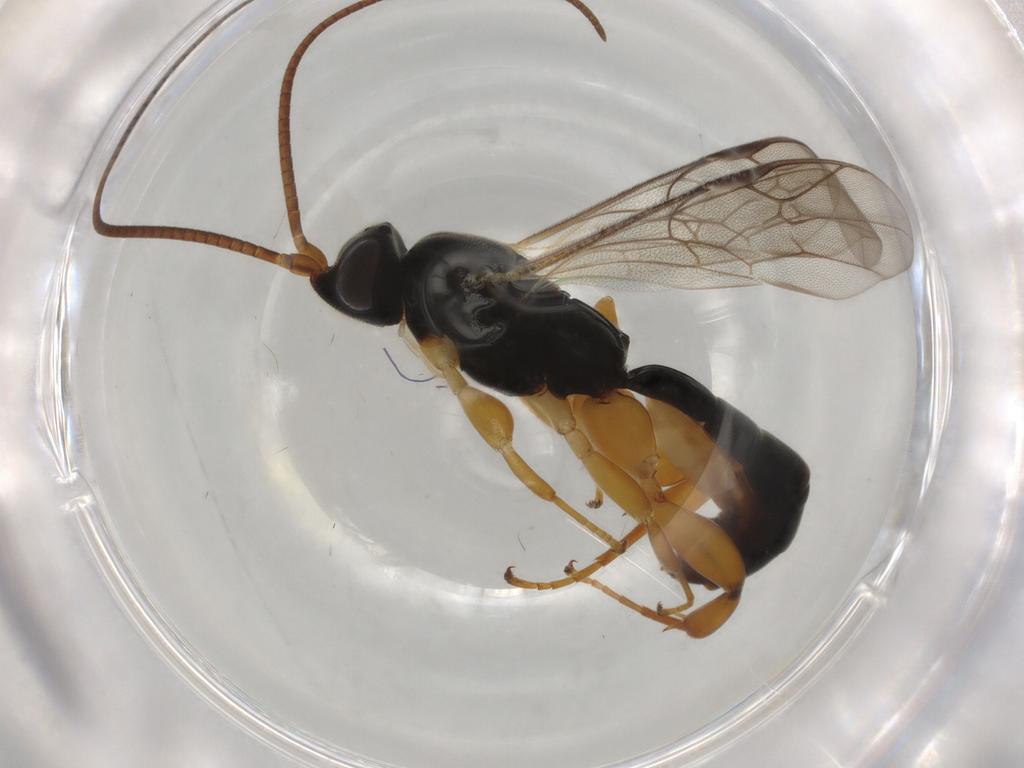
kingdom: Animalia
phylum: Arthropoda
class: Insecta
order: Hymenoptera
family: Ichneumonidae
